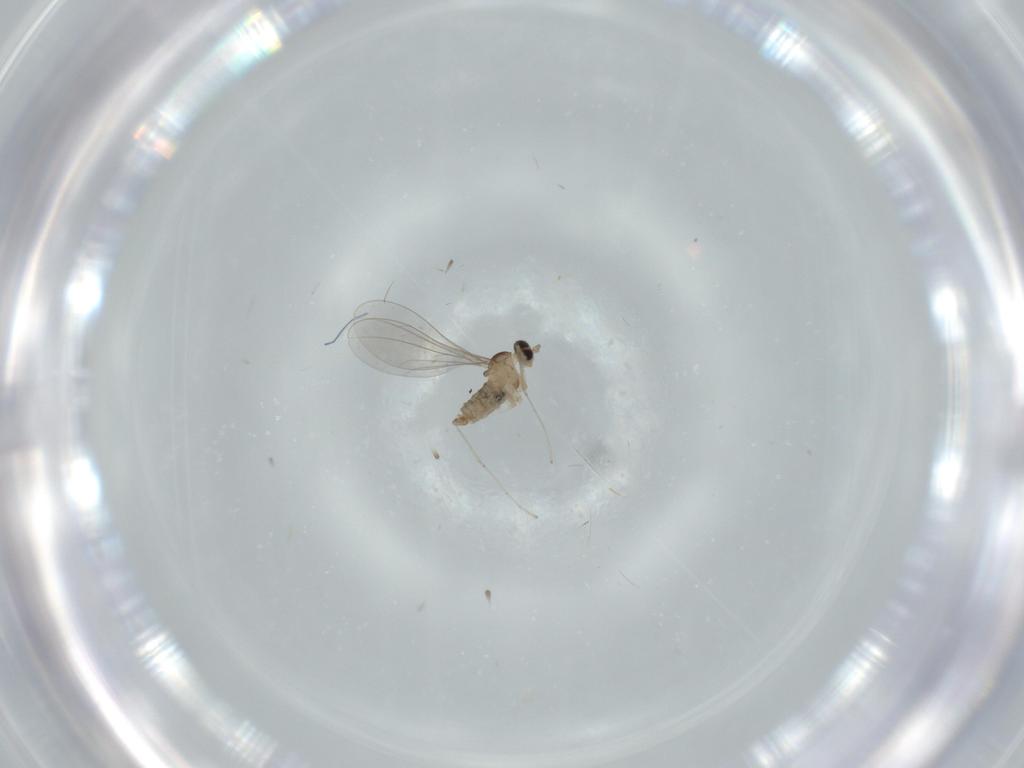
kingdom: Animalia
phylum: Arthropoda
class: Insecta
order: Diptera
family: Cecidomyiidae
